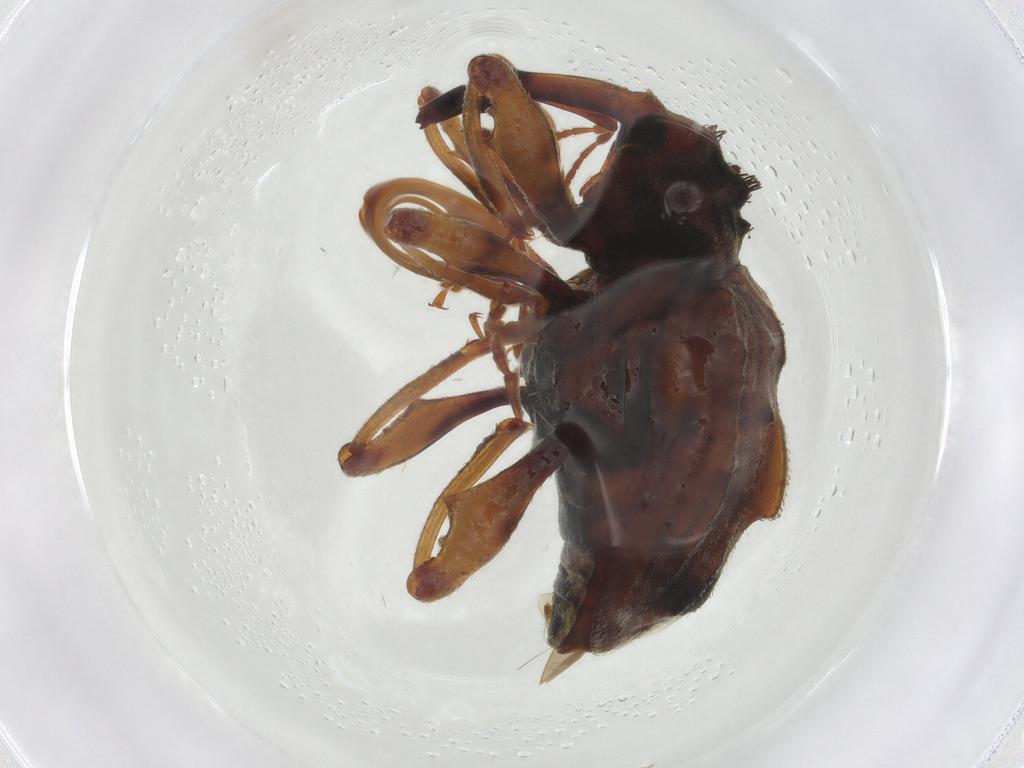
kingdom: Animalia
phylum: Arthropoda
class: Insecta
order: Coleoptera
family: Curculionidae
